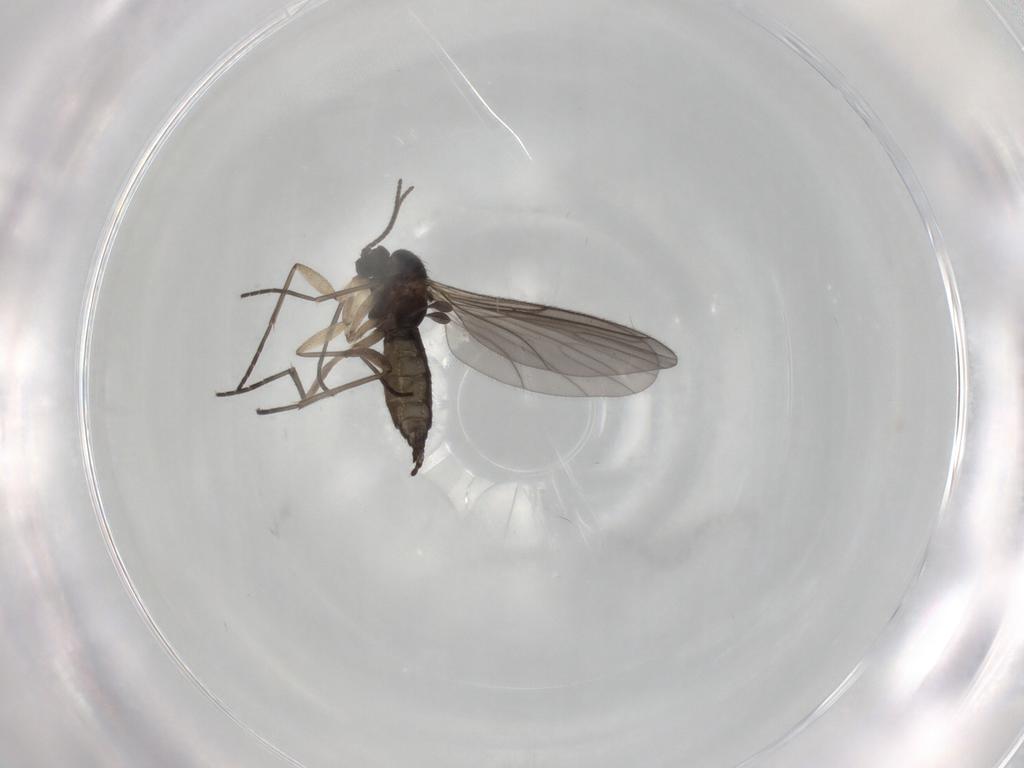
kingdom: Animalia
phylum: Arthropoda
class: Insecta
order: Diptera
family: Sciaridae
